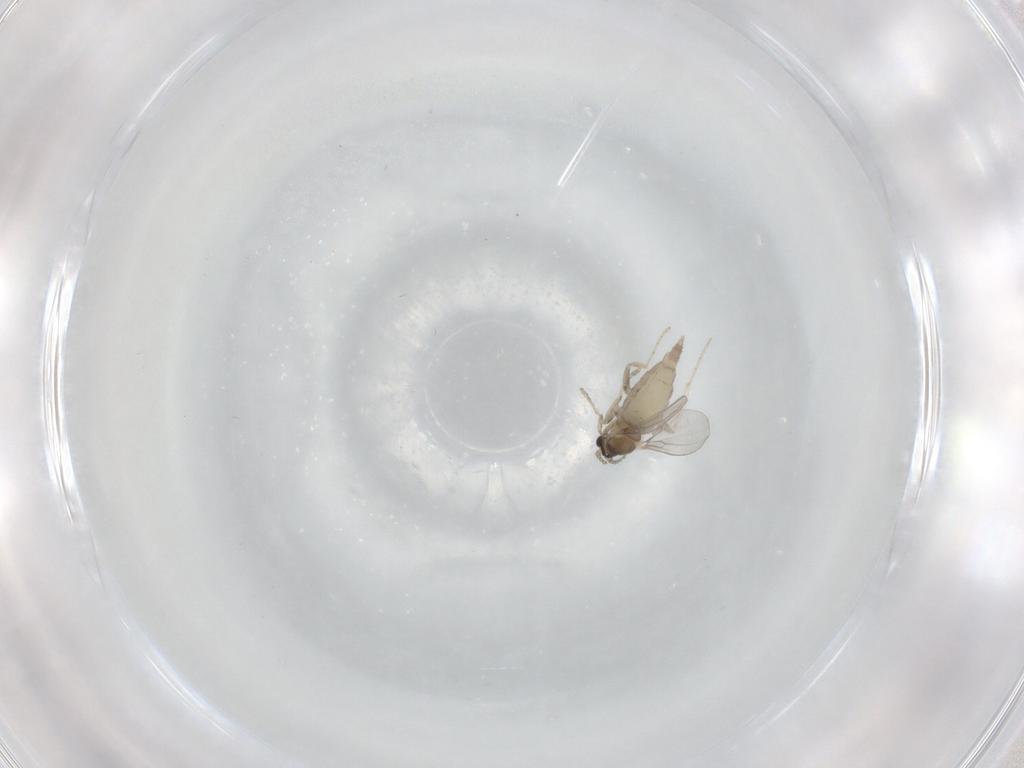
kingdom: Animalia
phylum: Arthropoda
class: Insecta
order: Diptera
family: Cecidomyiidae
